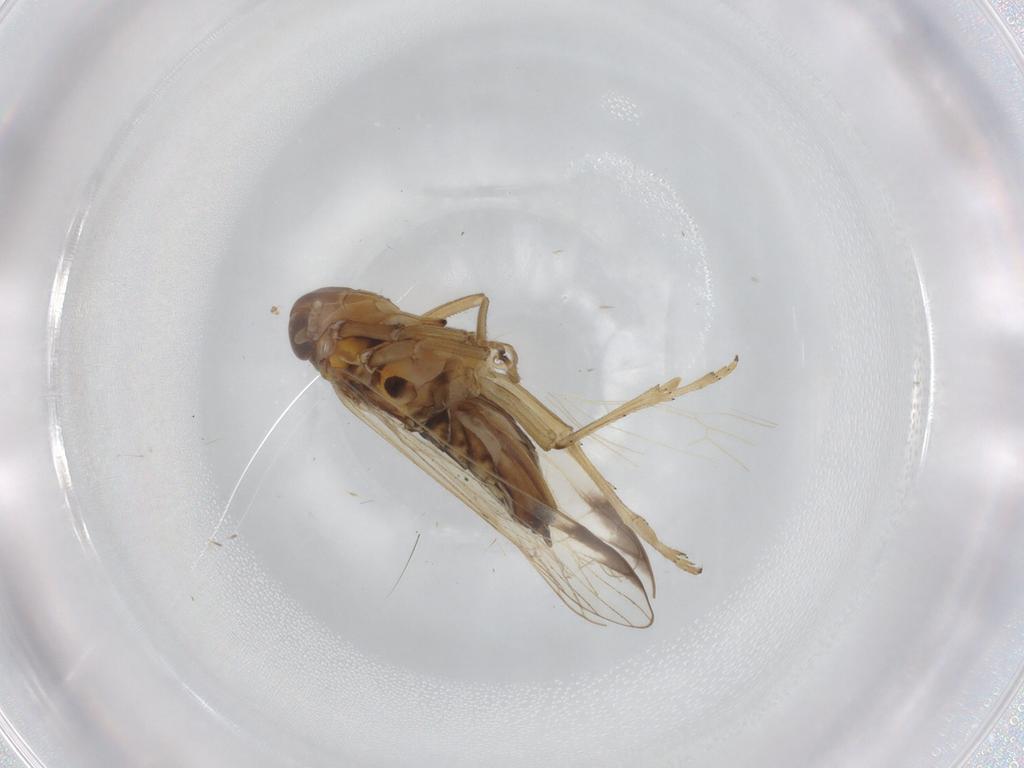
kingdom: Animalia
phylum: Arthropoda
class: Insecta
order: Hemiptera
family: Delphacidae
